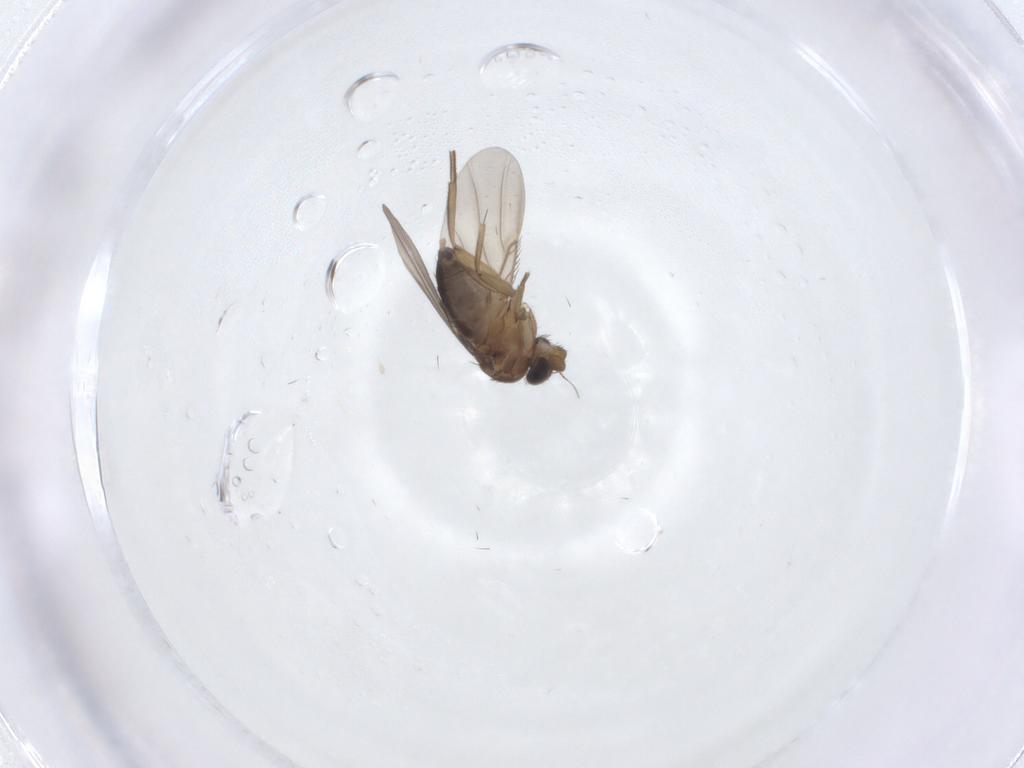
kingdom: Animalia
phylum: Arthropoda
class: Insecta
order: Diptera
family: Phoridae
